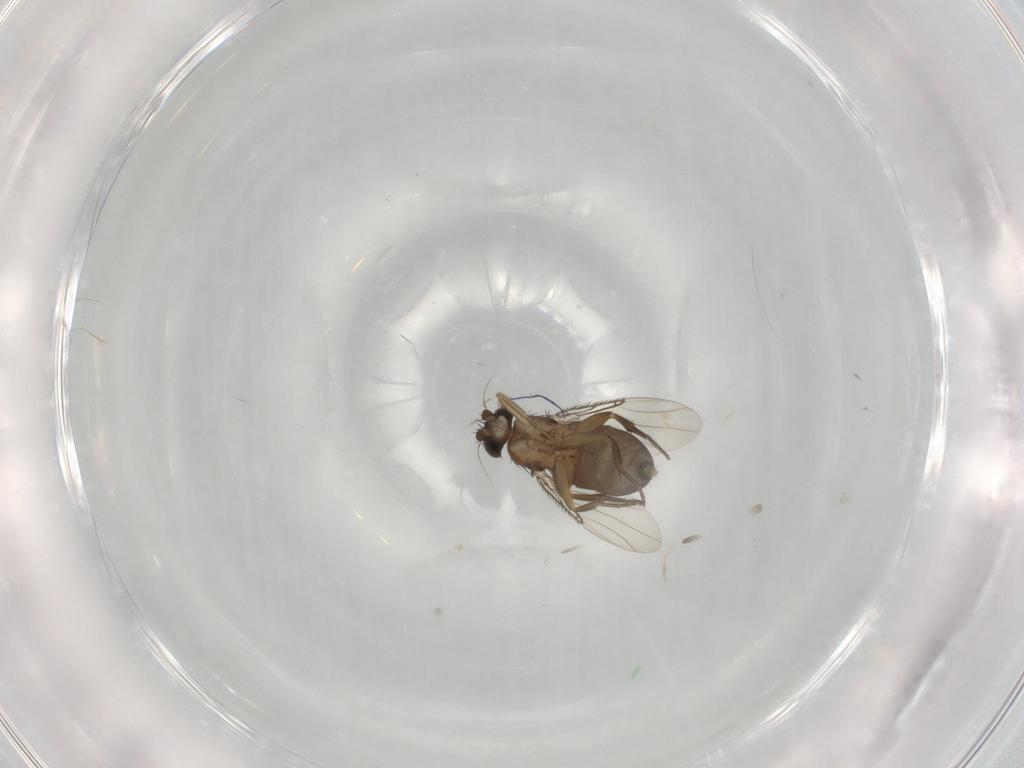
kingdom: Animalia
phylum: Arthropoda
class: Insecta
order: Diptera
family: Phoridae
